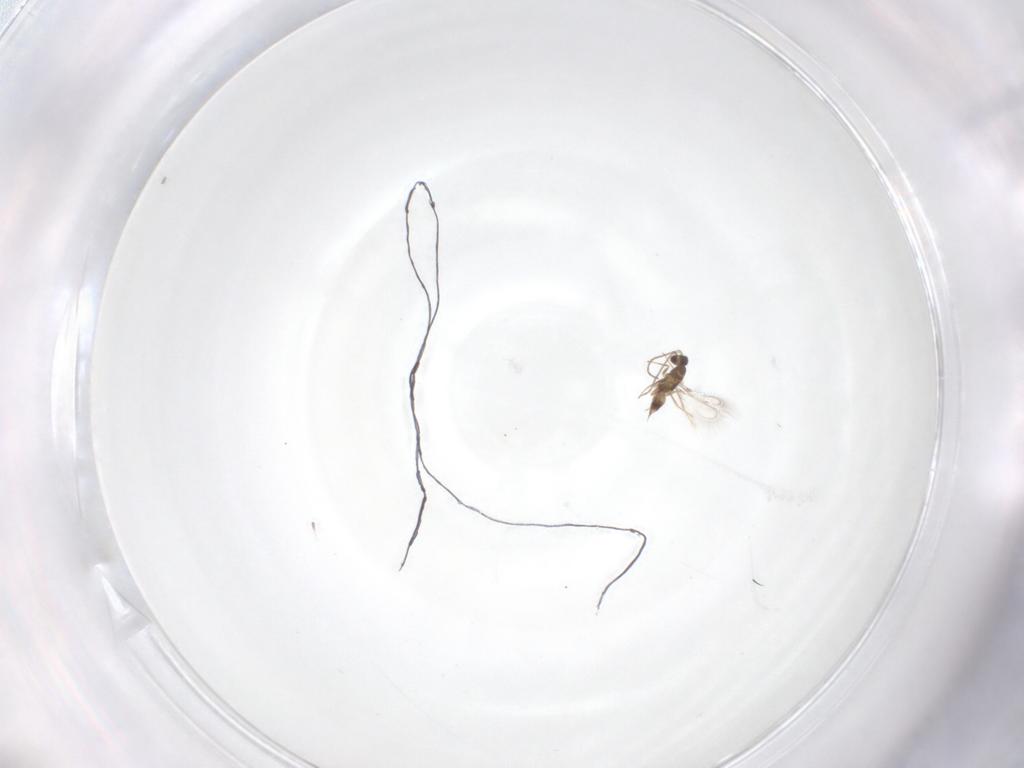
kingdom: Animalia
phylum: Arthropoda
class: Insecta
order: Hymenoptera
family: Mymaridae
